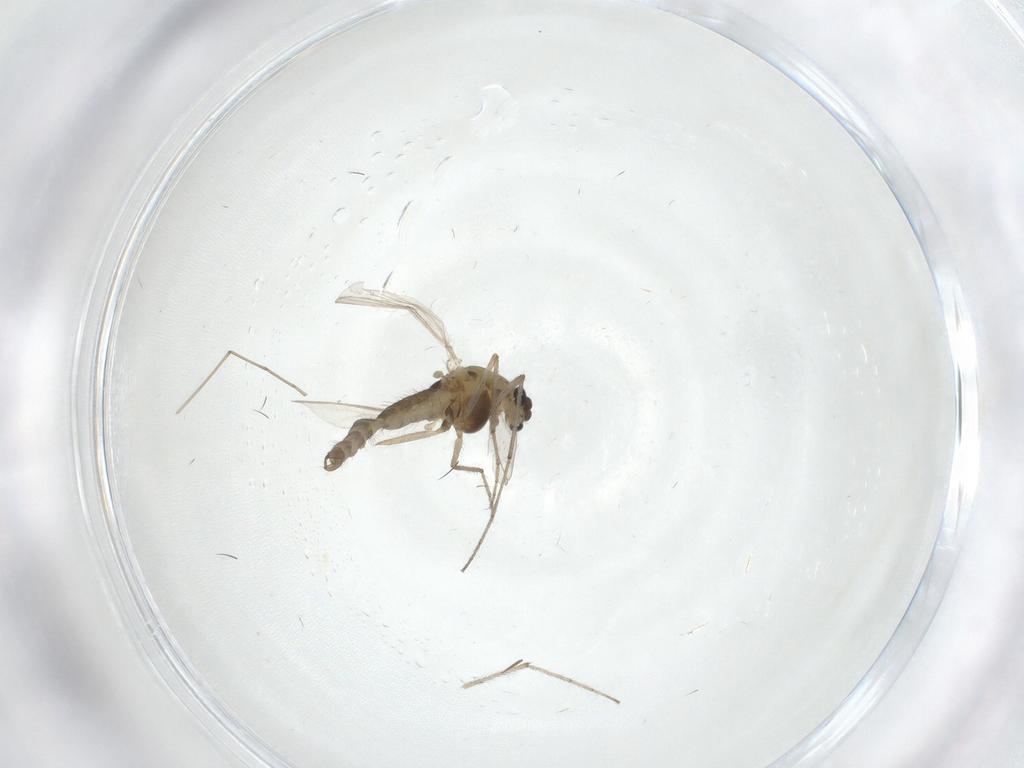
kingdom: Animalia
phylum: Arthropoda
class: Insecta
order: Diptera
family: Chironomidae
